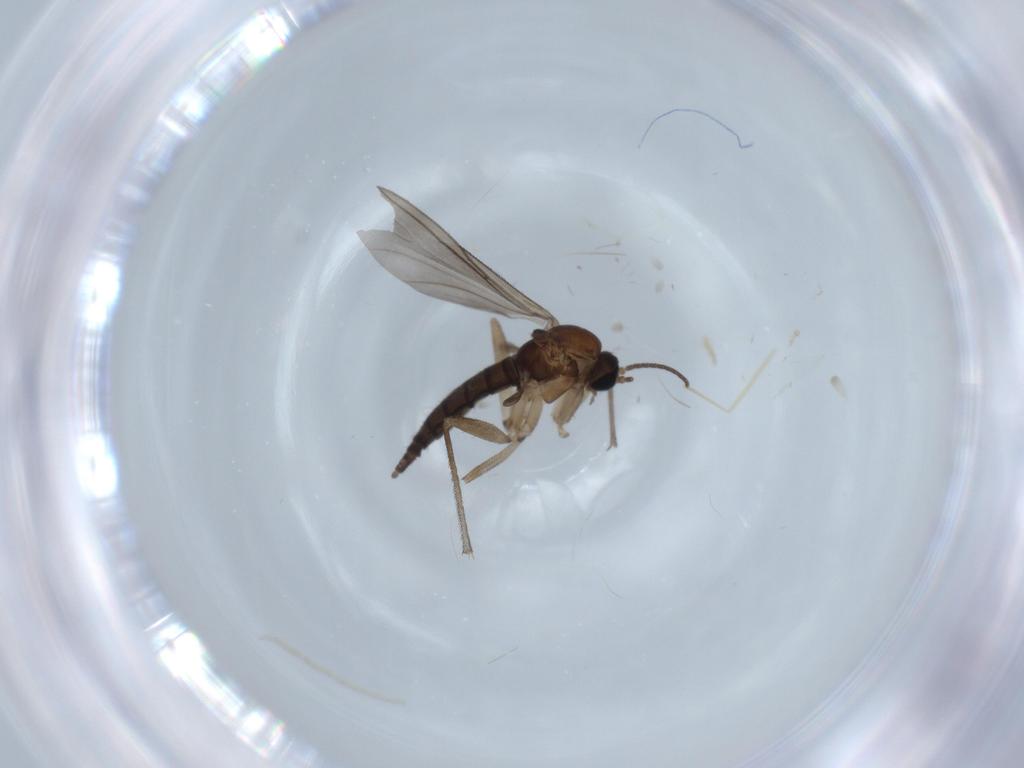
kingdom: Animalia
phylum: Arthropoda
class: Insecta
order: Diptera
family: Sciaridae
